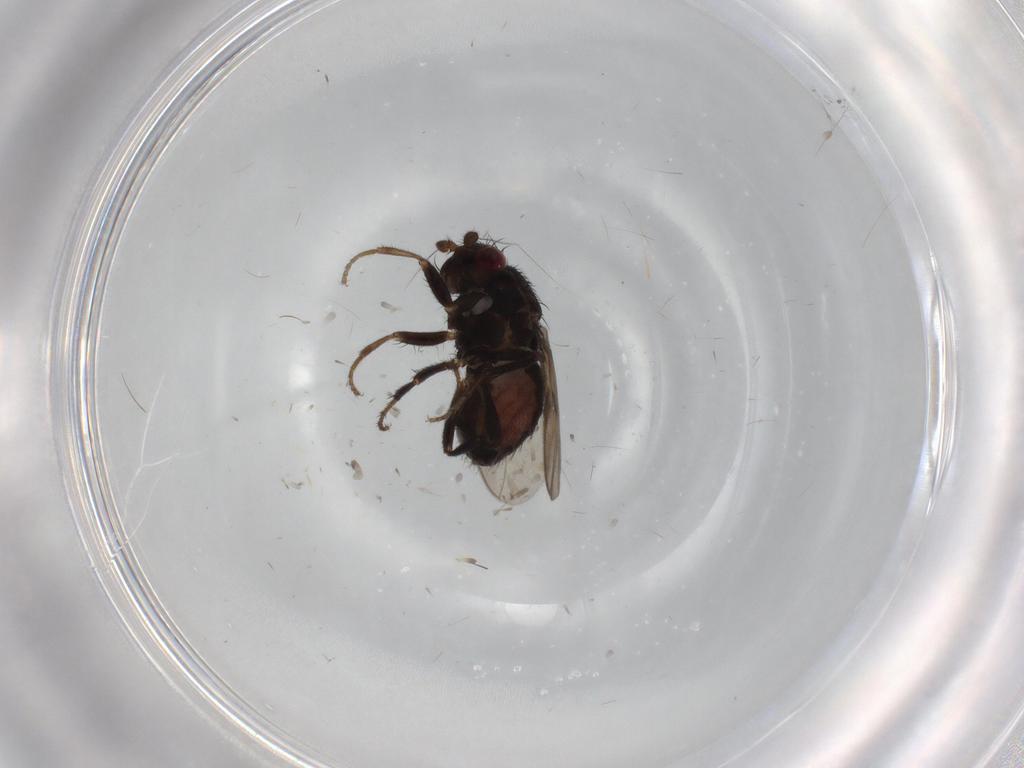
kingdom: Animalia
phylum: Arthropoda
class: Insecta
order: Diptera
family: Sphaeroceridae
